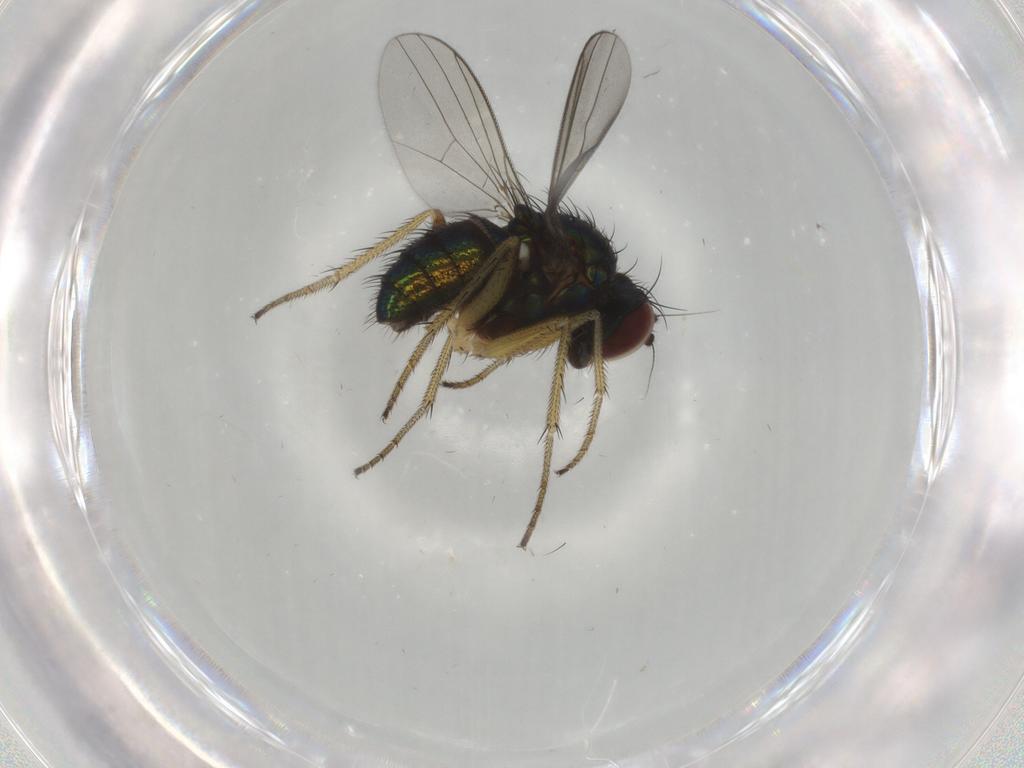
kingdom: Animalia
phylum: Arthropoda
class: Insecta
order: Diptera
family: Dolichopodidae
